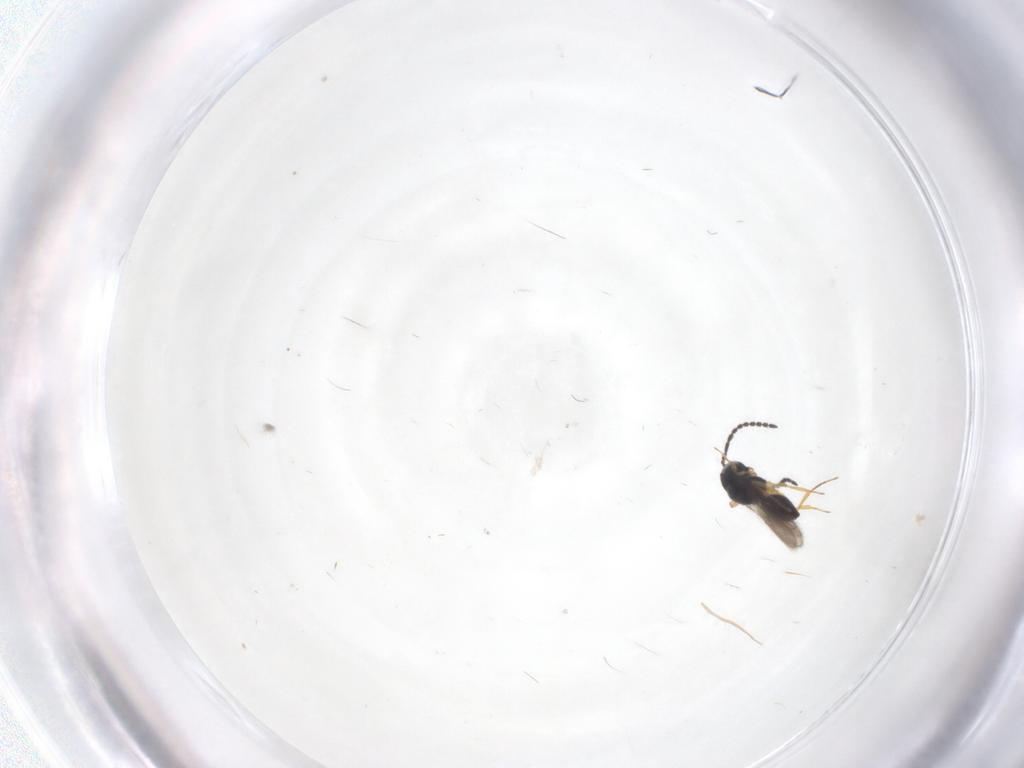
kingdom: Animalia
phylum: Arthropoda
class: Insecta
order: Hymenoptera
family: Scelionidae
